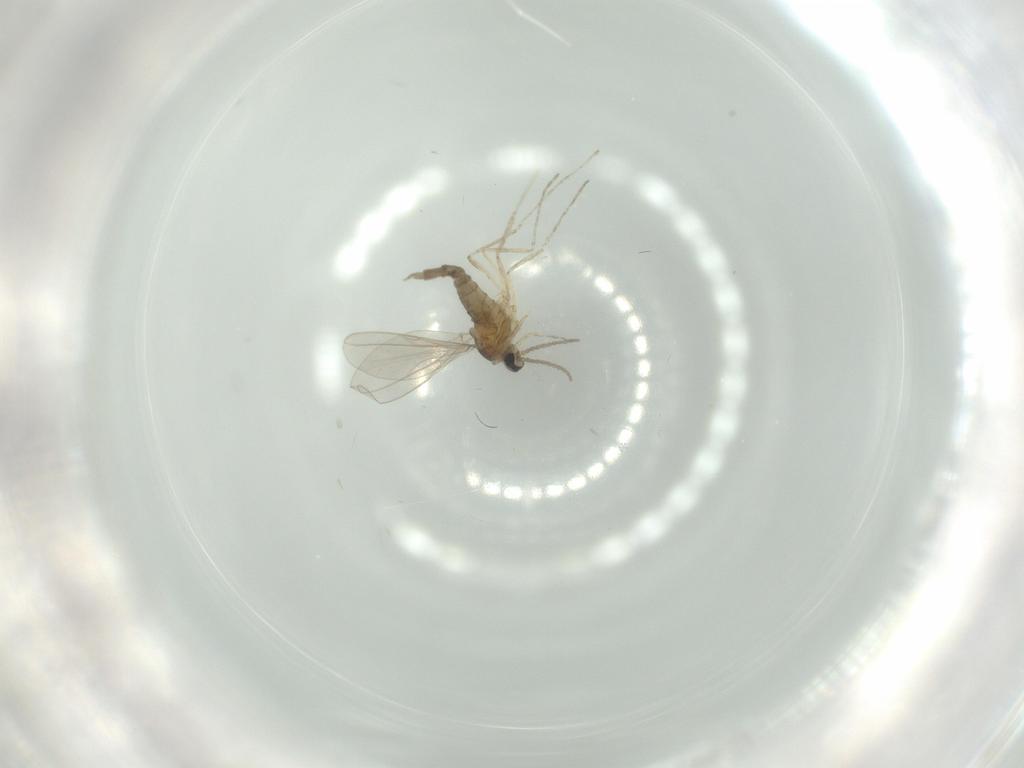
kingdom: Animalia
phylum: Arthropoda
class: Insecta
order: Diptera
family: Cecidomyiidae
